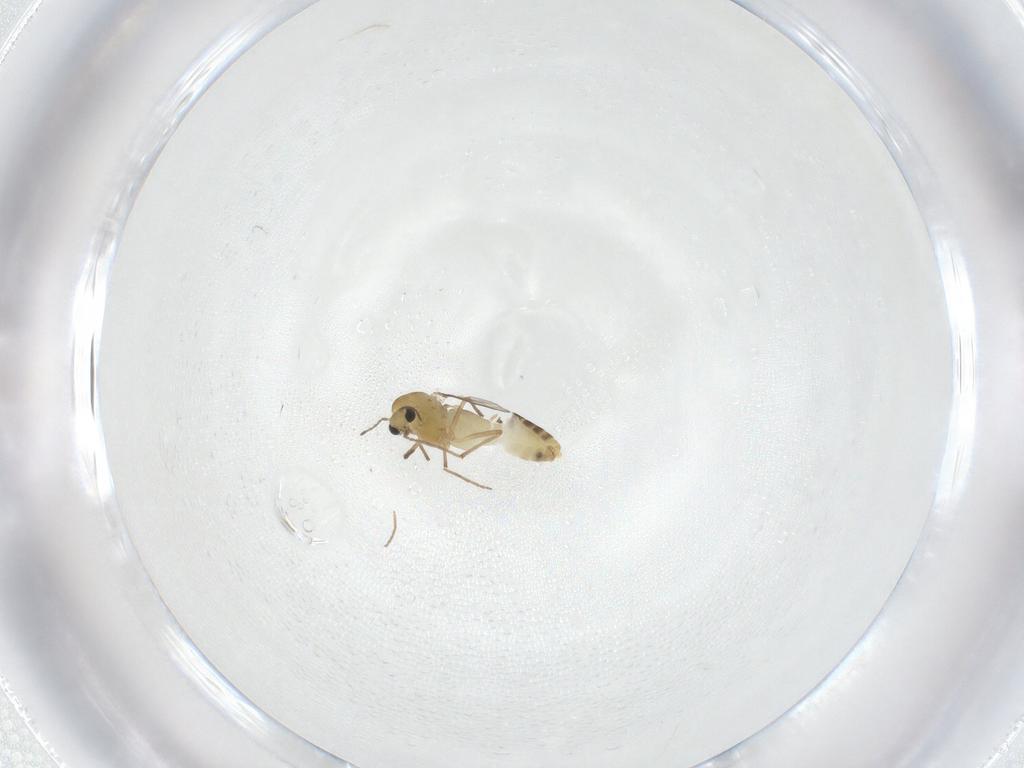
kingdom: Animalia
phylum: Arthropoda
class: Insecta
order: Diptera
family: Chironomidae
